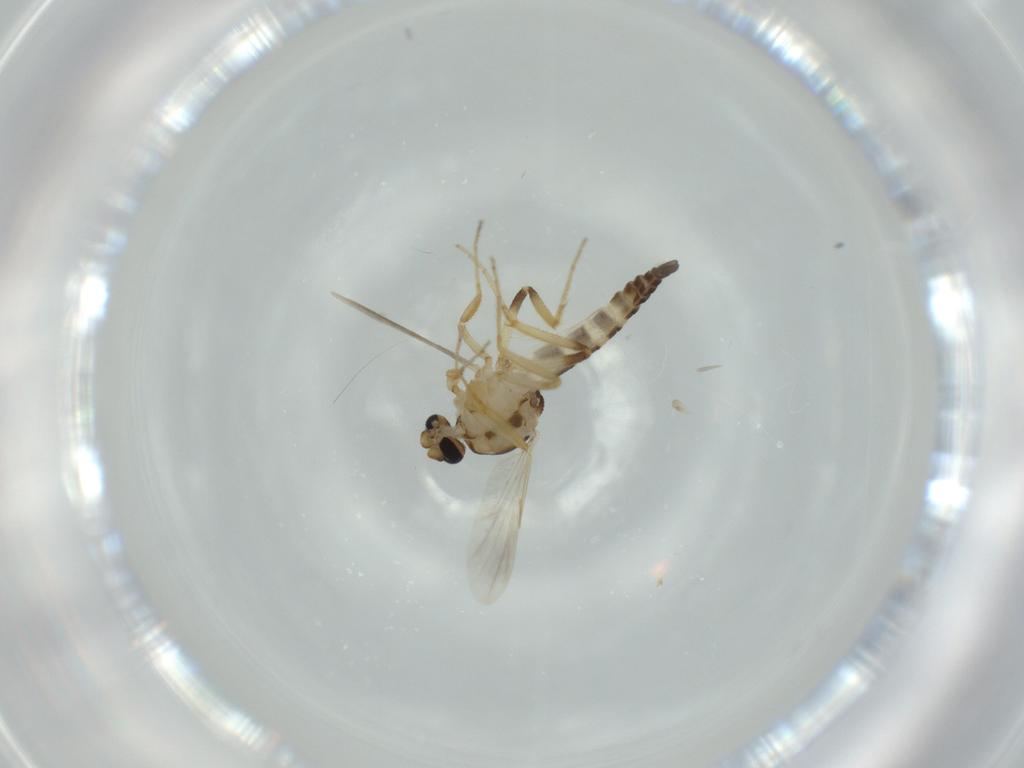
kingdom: Animalia
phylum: Arthropoda
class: Insecta
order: Diptera
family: Ceratopogonidae
